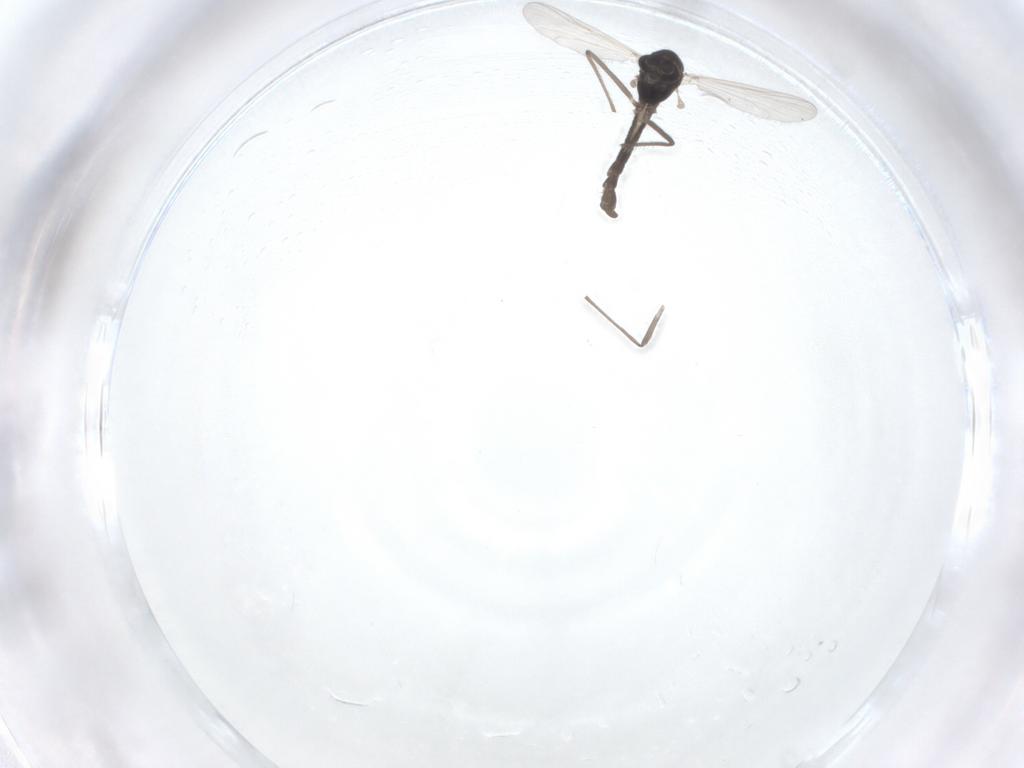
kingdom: Animalia
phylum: Arthropoda
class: Insecta
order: Diptera
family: Chironomidae
